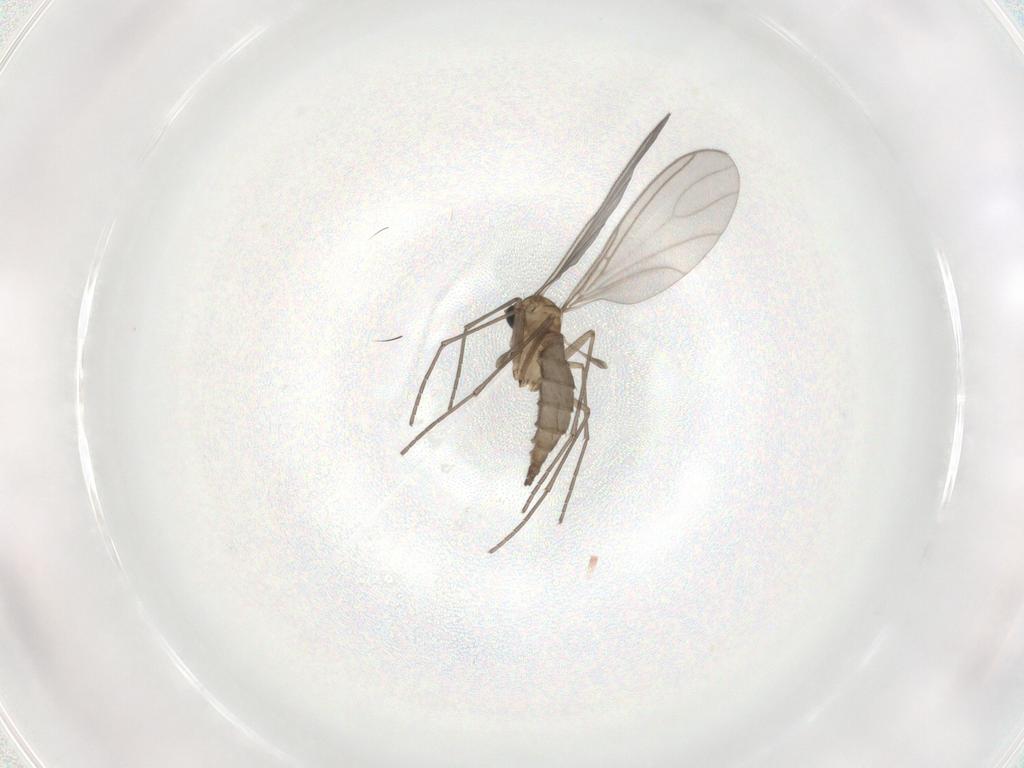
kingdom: Animalia
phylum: Arthropoda
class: Insecta
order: Diptera
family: Sciaridae
